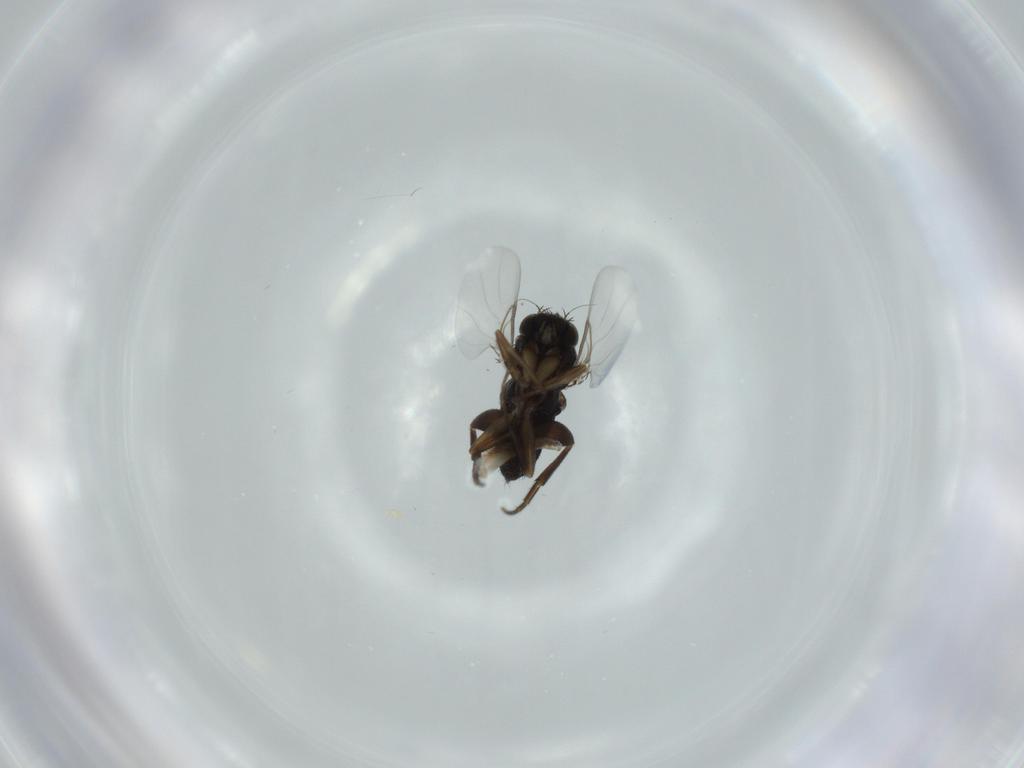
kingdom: Animalia
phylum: Arthropoda
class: Insecta
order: Diptera
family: Phoridae
